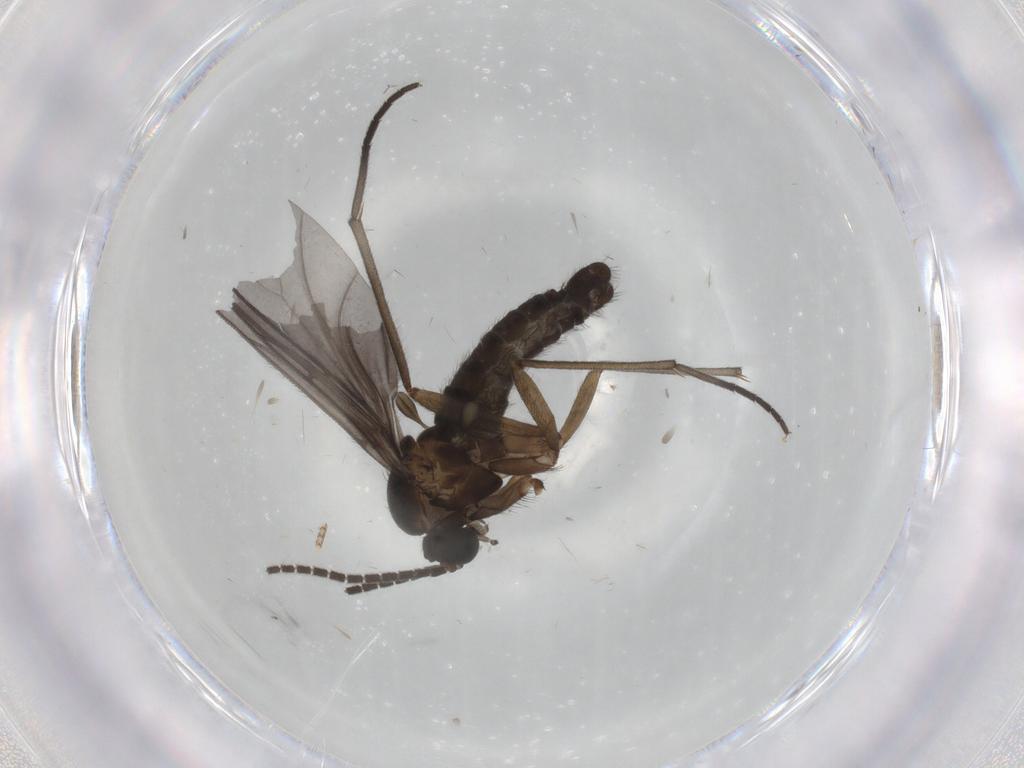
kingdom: Animalia
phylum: Arthropoda
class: Insecta
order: Diptera
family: Sciaridae
